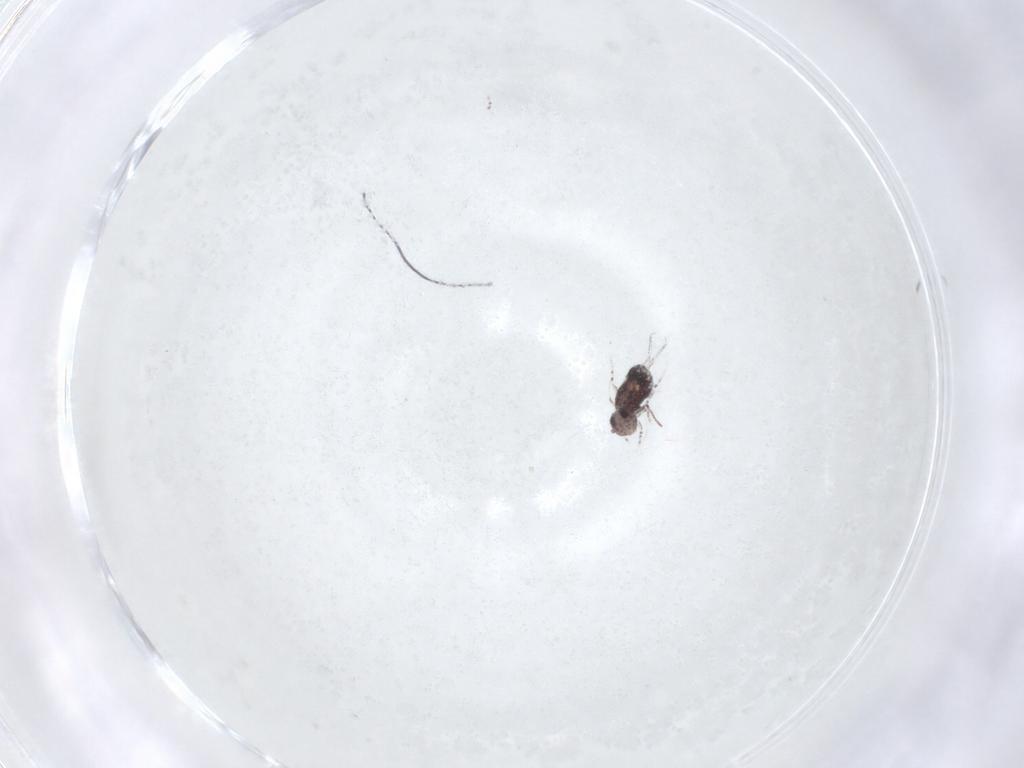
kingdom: Animalia
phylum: Arthropoda
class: Collembola
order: Symphypleona
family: Bourletiellidae
